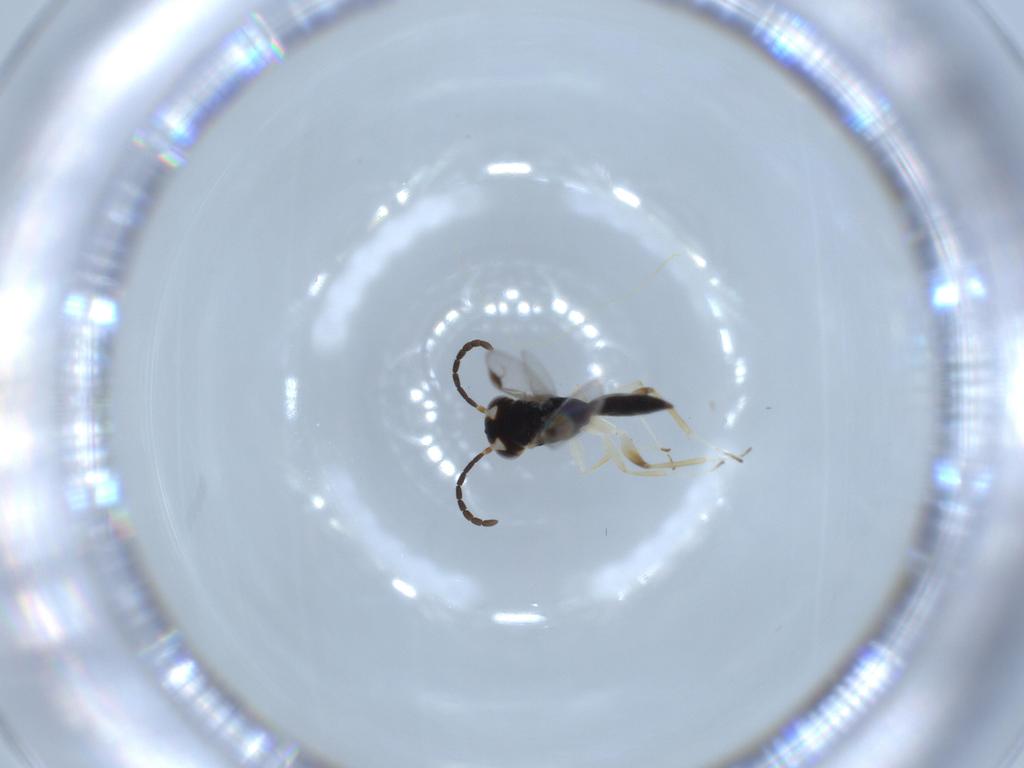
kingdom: Animalia
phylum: Arthropoda
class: Insecta
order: Hymenoptera
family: Dryinidae
